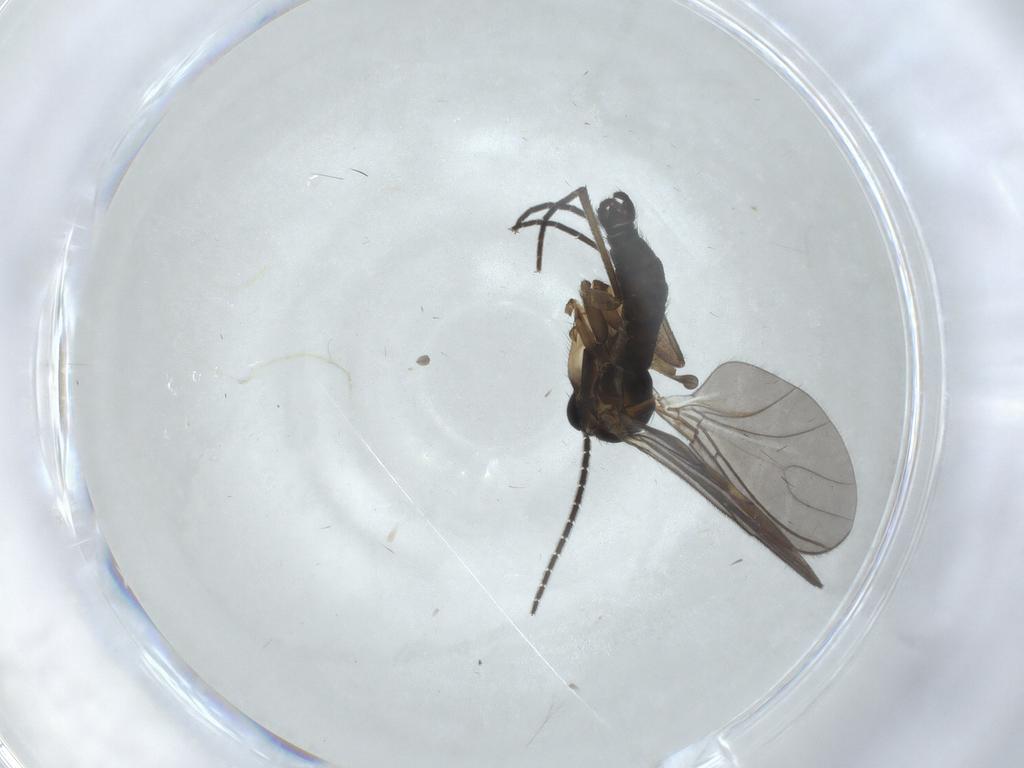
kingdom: Animalia
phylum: Arthropoda
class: Insecta
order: Diptera
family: Sciaridae
